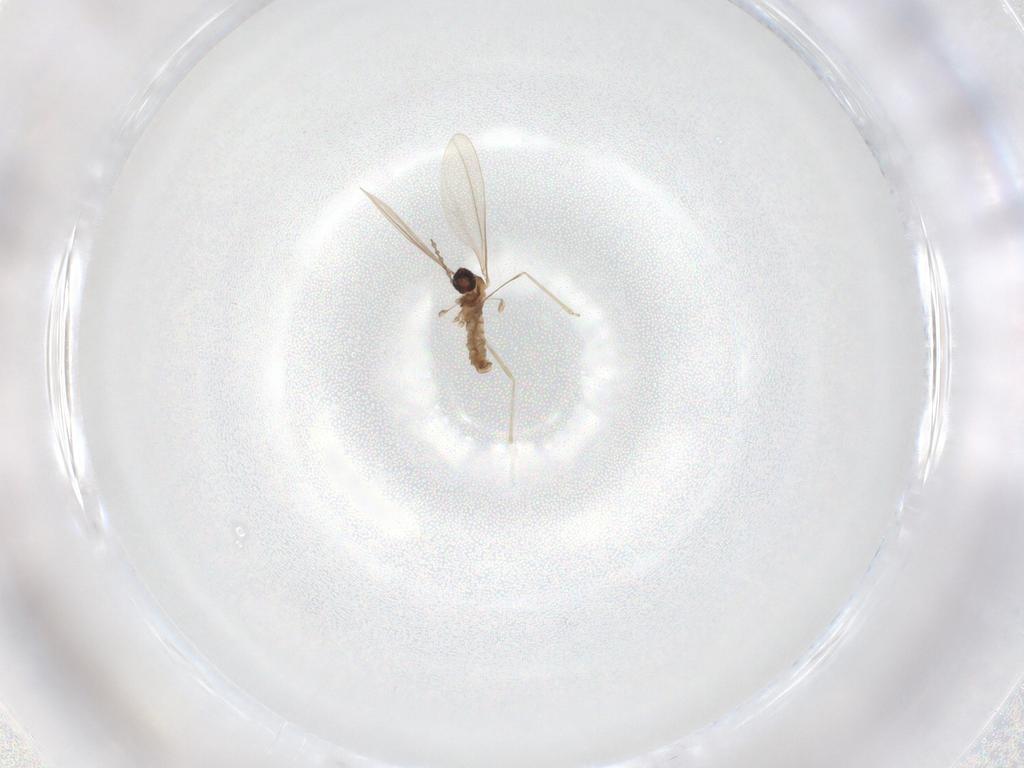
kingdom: Animalia
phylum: Arthropoda
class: Insecta
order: Diptera
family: Cecidomyiidae
